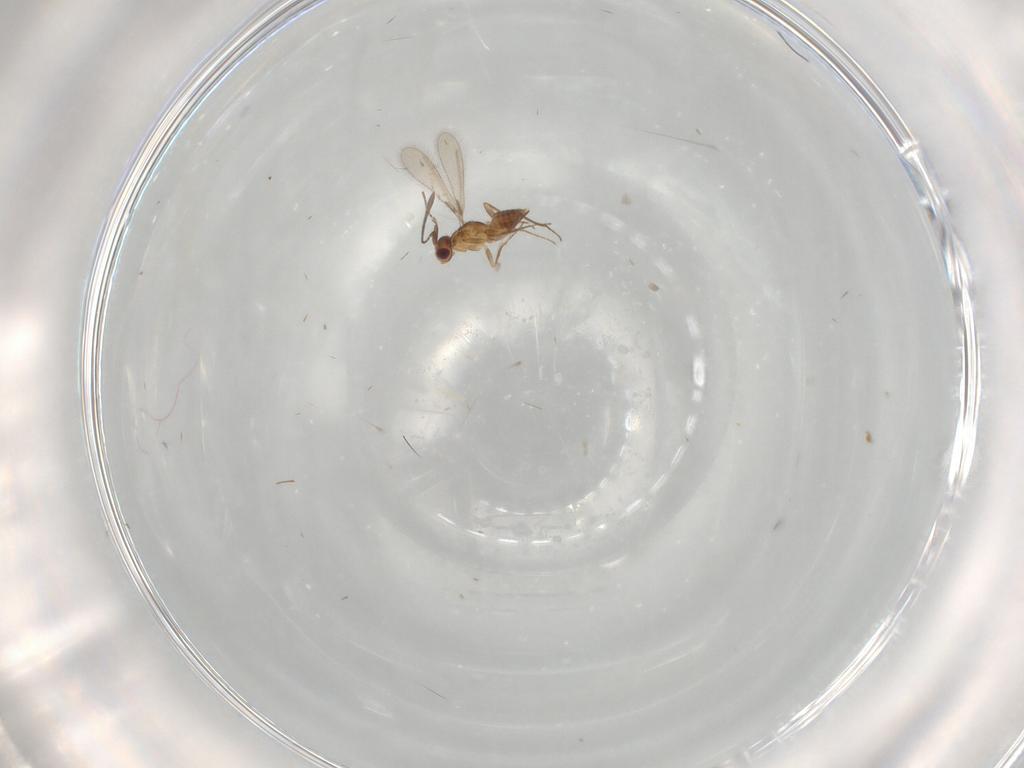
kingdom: Animalia
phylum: Arthropoda
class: Insecta
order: Hymenoptera
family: Mymaridae
